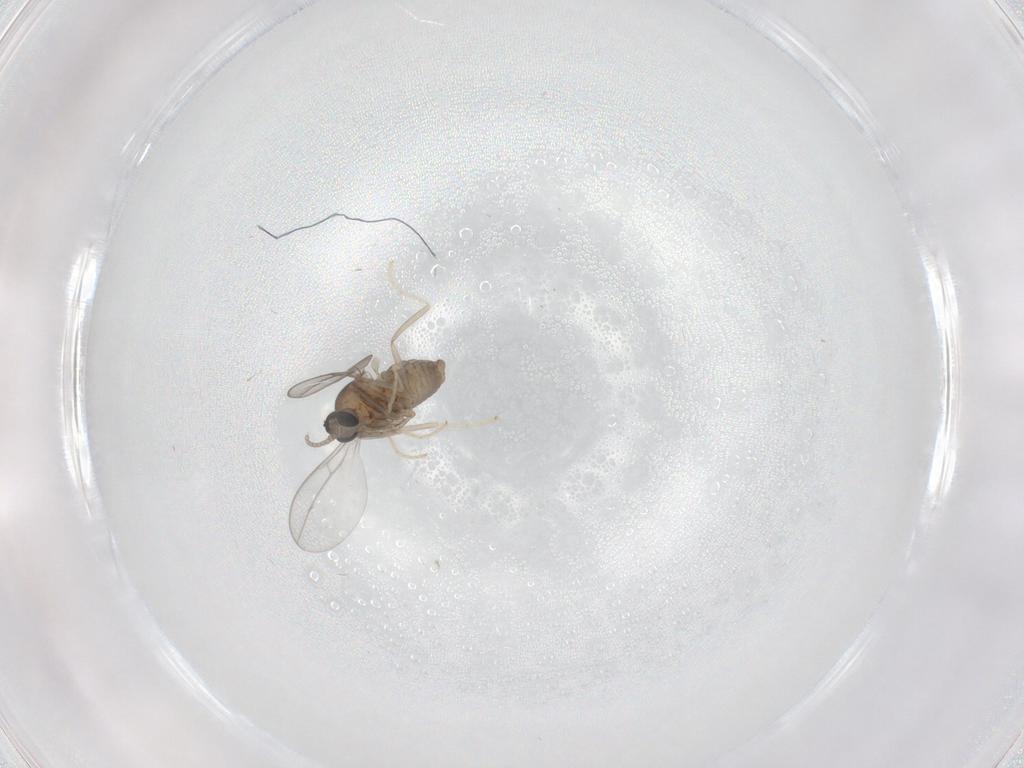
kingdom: Animalia
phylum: Arthropoda
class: Insecta
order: Diptera
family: Cecidomyiidae
